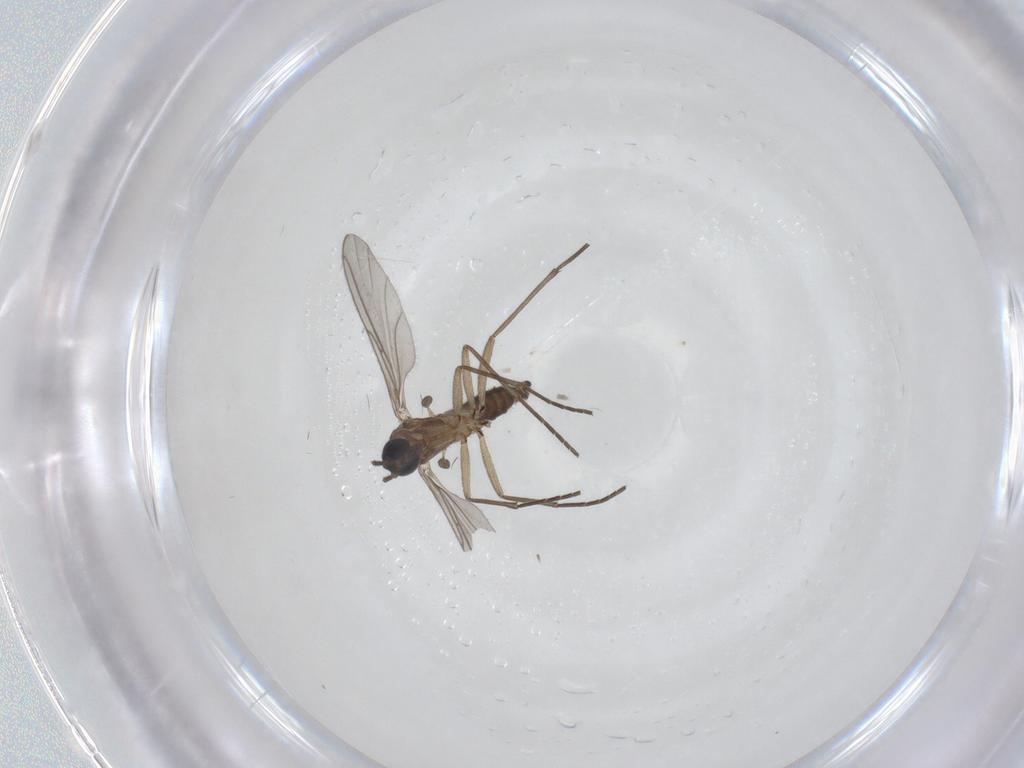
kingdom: Animalia
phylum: Arthropoda
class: Insecta
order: Diptera
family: Sciaridae
